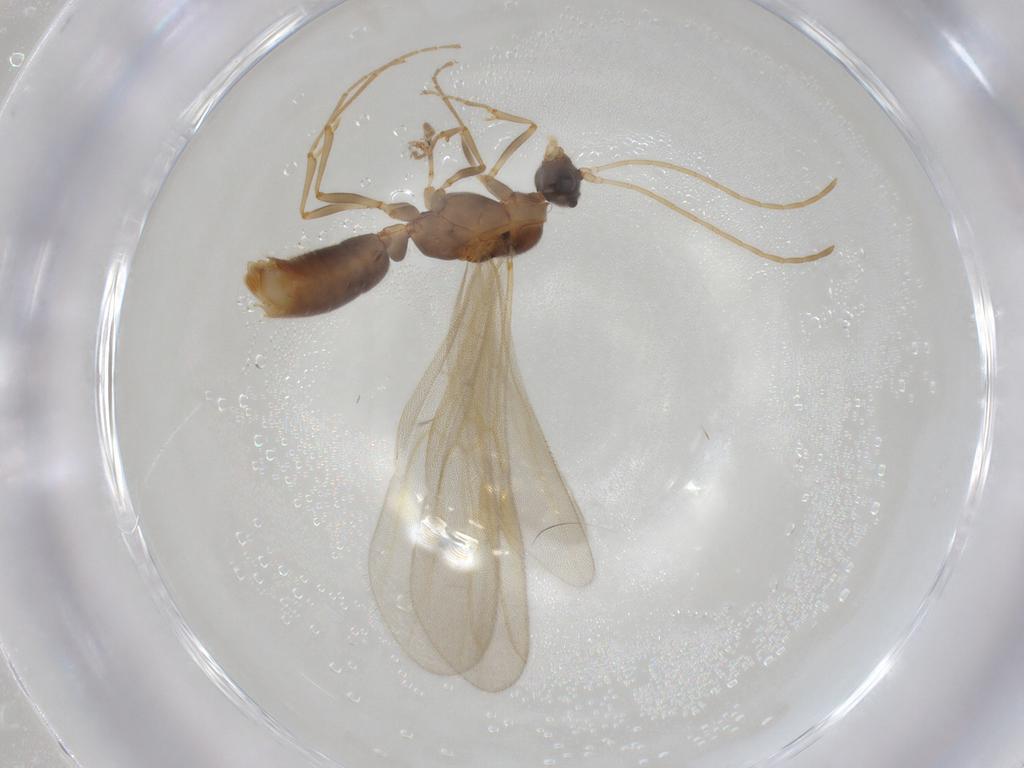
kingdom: Animalia
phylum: Arthropoda
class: Insecta
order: Hymenoptera
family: Formicidae
